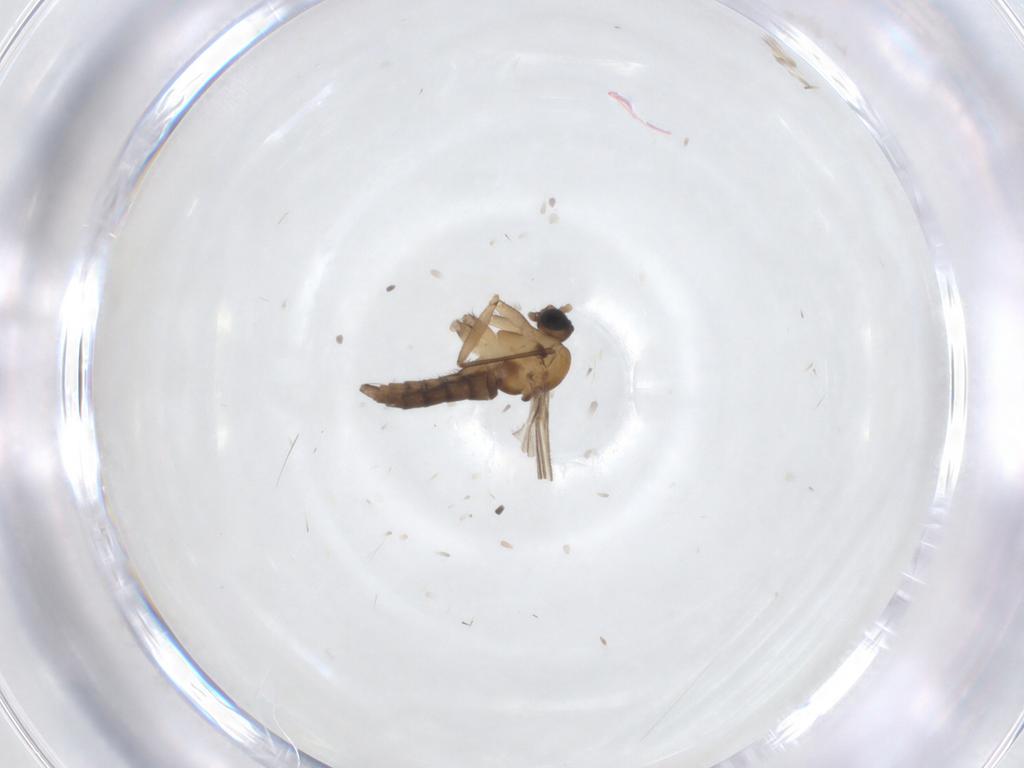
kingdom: Animalia
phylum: Arthropoda
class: Insecta
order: Diptera
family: Sciaridae
